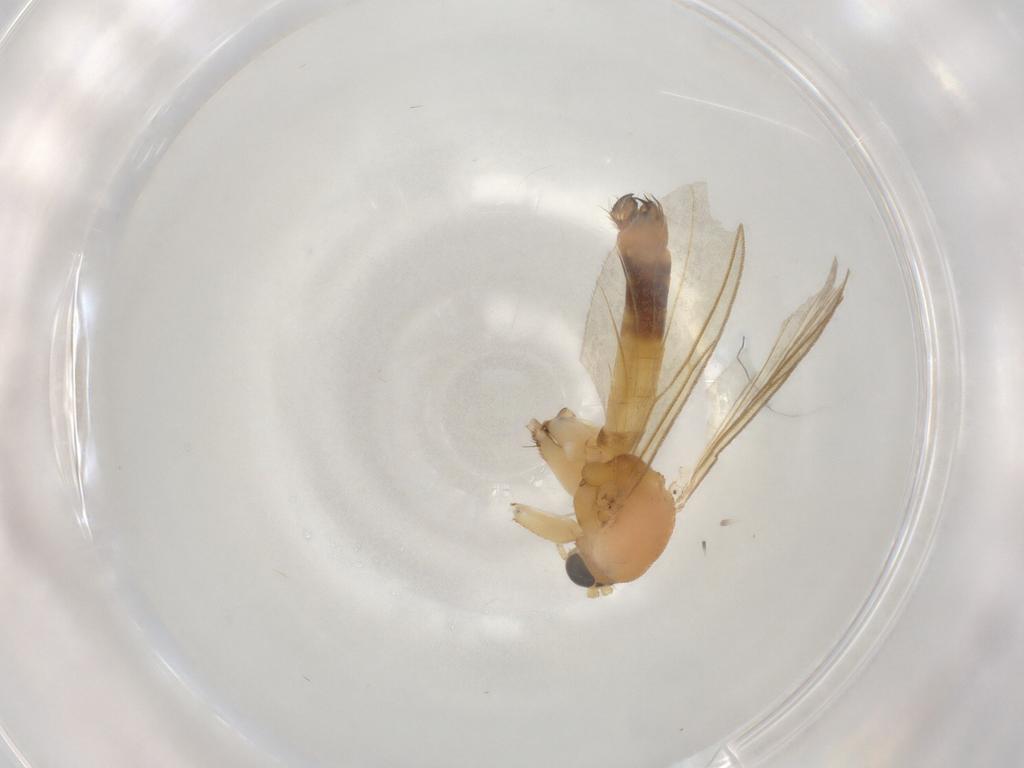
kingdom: Animalia
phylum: Arthropoda
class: Insecta
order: Diptera
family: Mycetophilidae
